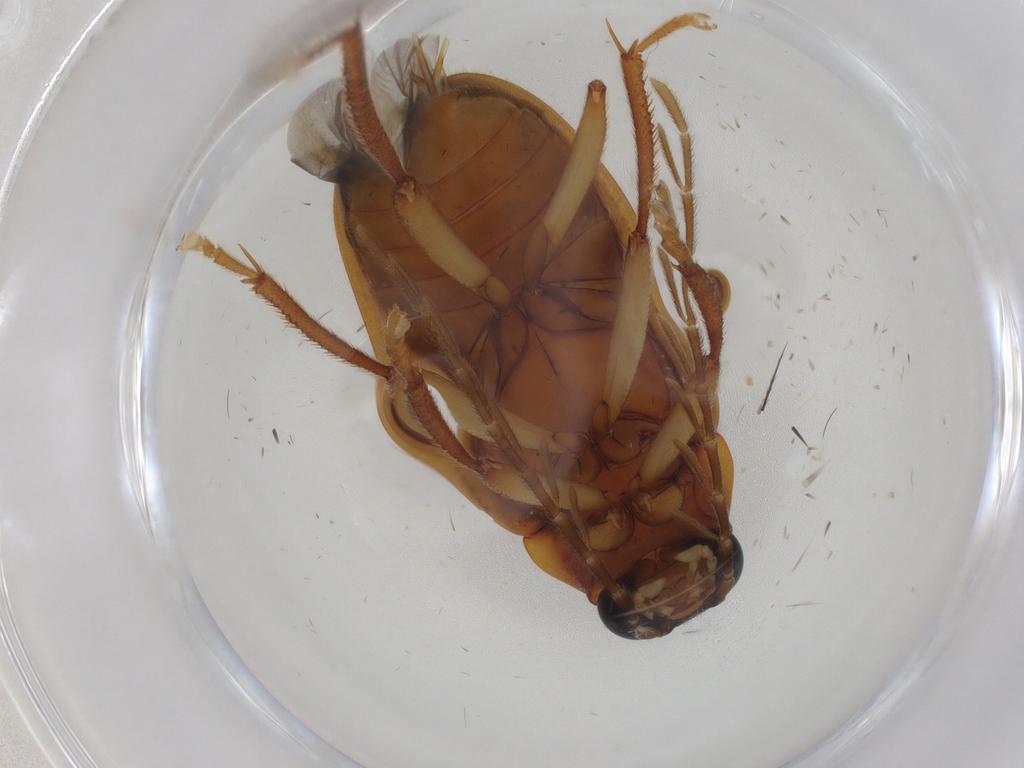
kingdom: Animalia
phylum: Arthropoda
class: Insecta
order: Coleoptera
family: Ptilodactylidae
